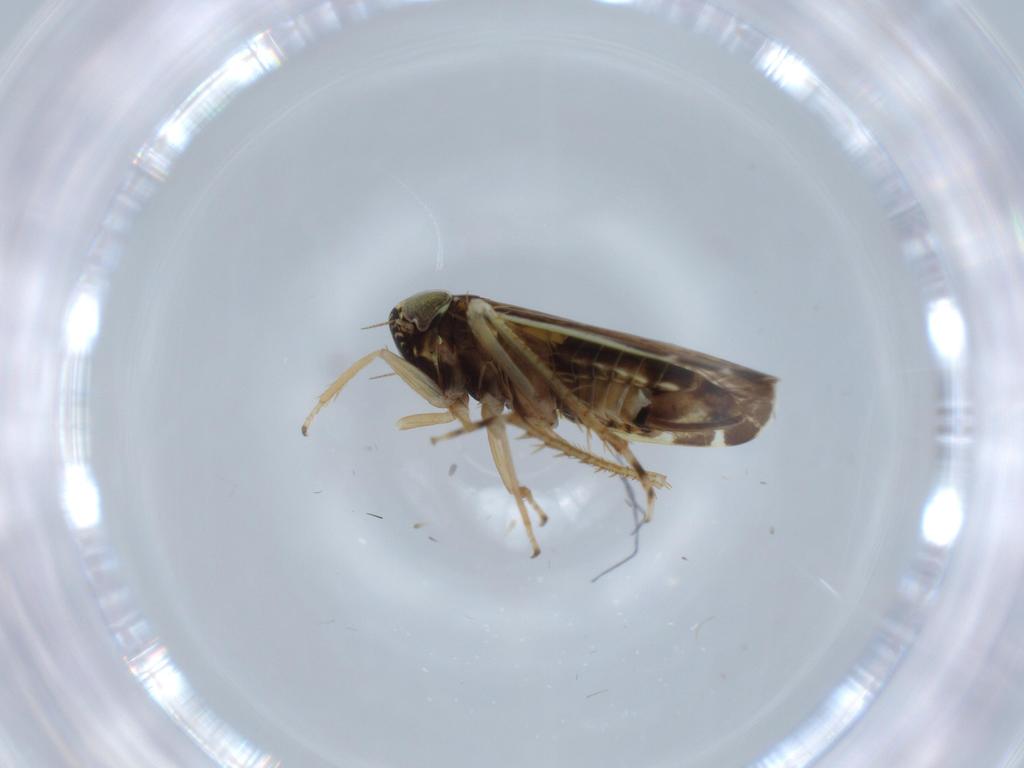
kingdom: Animalia
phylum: Arthropoda
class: Insecta
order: Hemiptera
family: Cicadellidae
